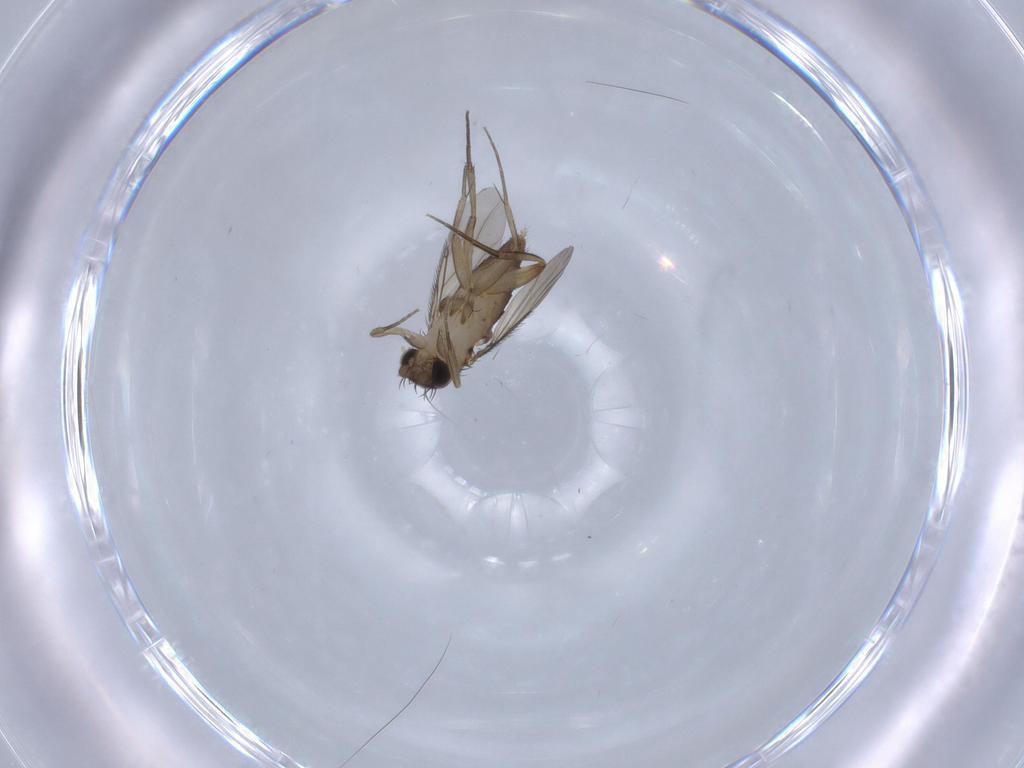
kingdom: Animalia
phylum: Arthropoda
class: Insecta
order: Diptera
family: Phoridae
